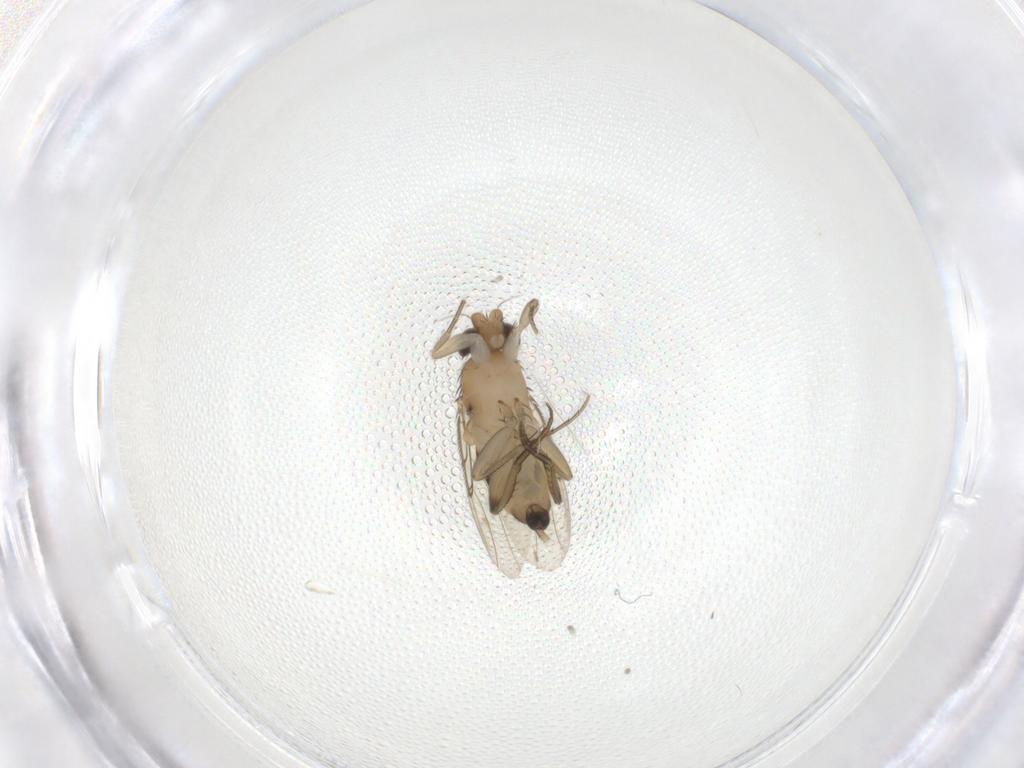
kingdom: Animalia
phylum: Arthropoda
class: Insecta
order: Diptera
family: Phoridae
